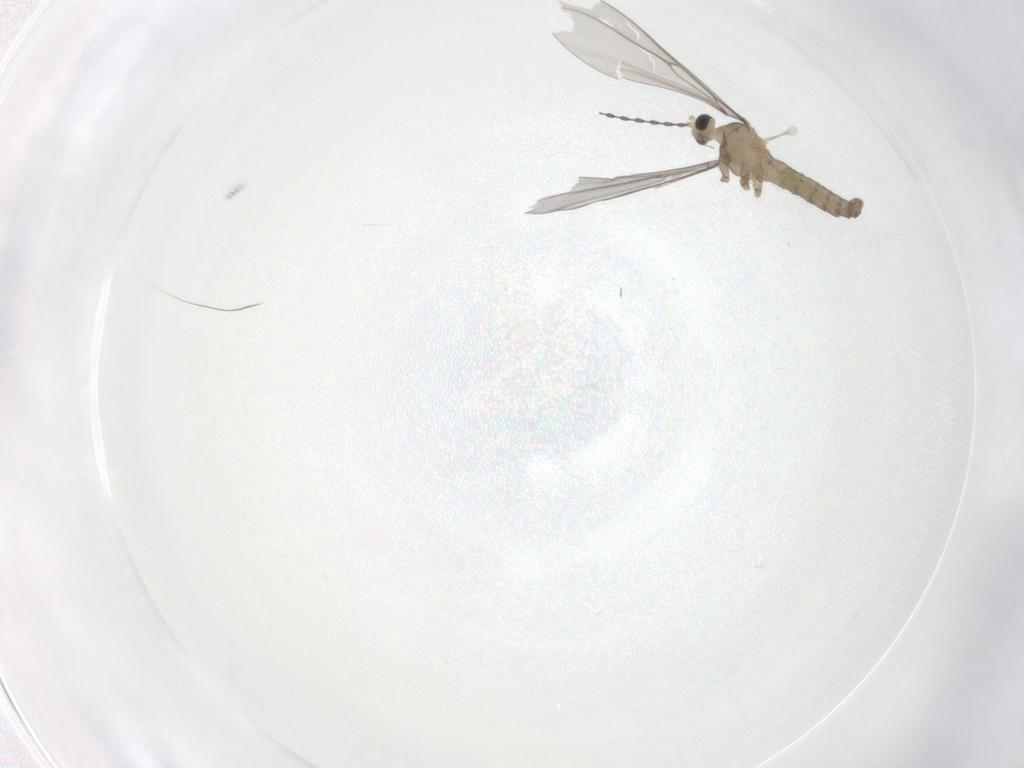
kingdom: Animalia
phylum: Arthropoda
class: Insecta
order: Diptera
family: Cecidomyiidae
